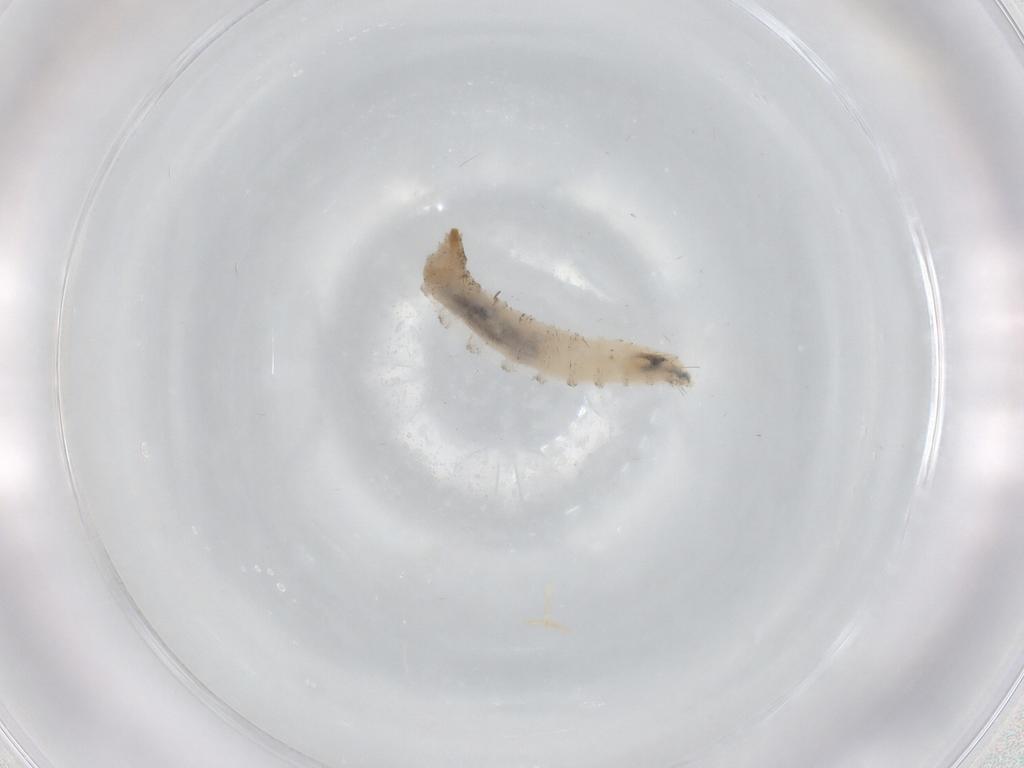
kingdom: Animalia
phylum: Arthropoda
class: Insecta
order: Diptera
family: Drosophilidae
